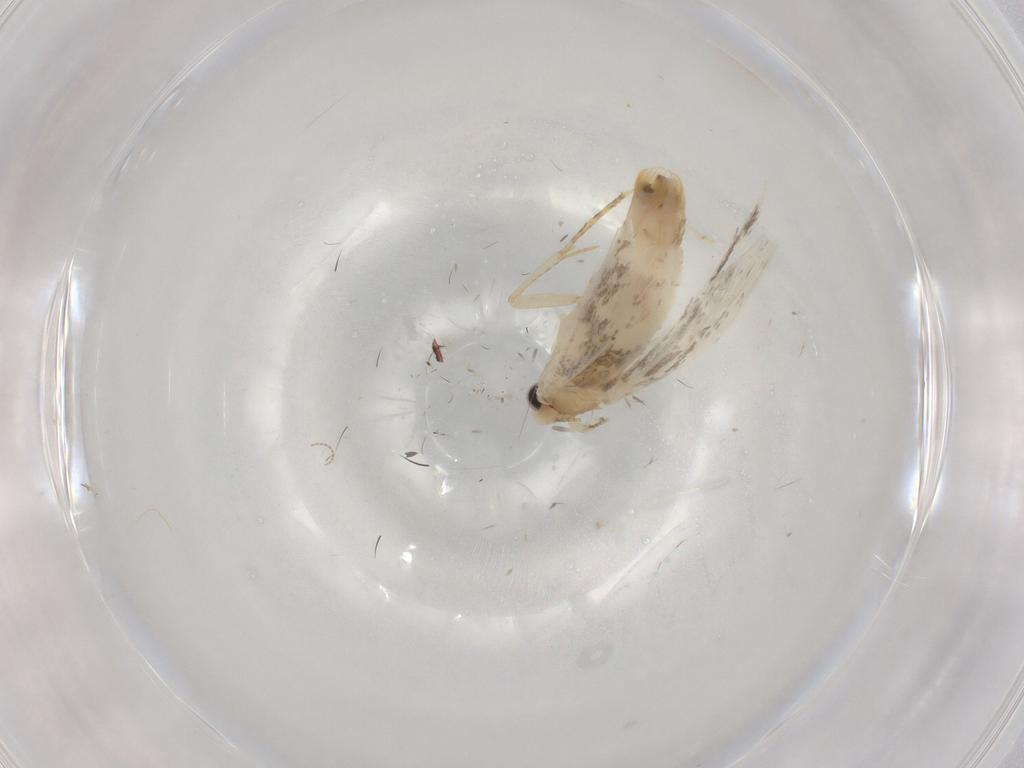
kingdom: Animalia
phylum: Arthropoda
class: Insecta
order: Lepidoptera
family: Tineidae
